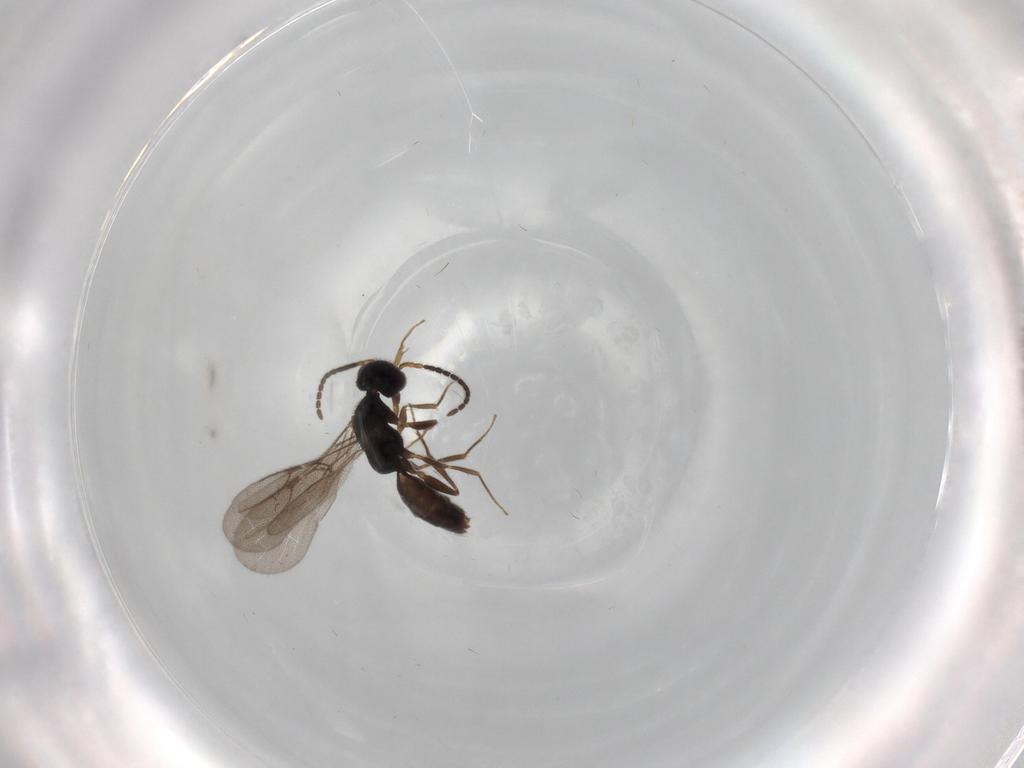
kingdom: Animalia
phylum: Arthropoda
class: Insecta
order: Hymenoptera
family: Bethylidae
